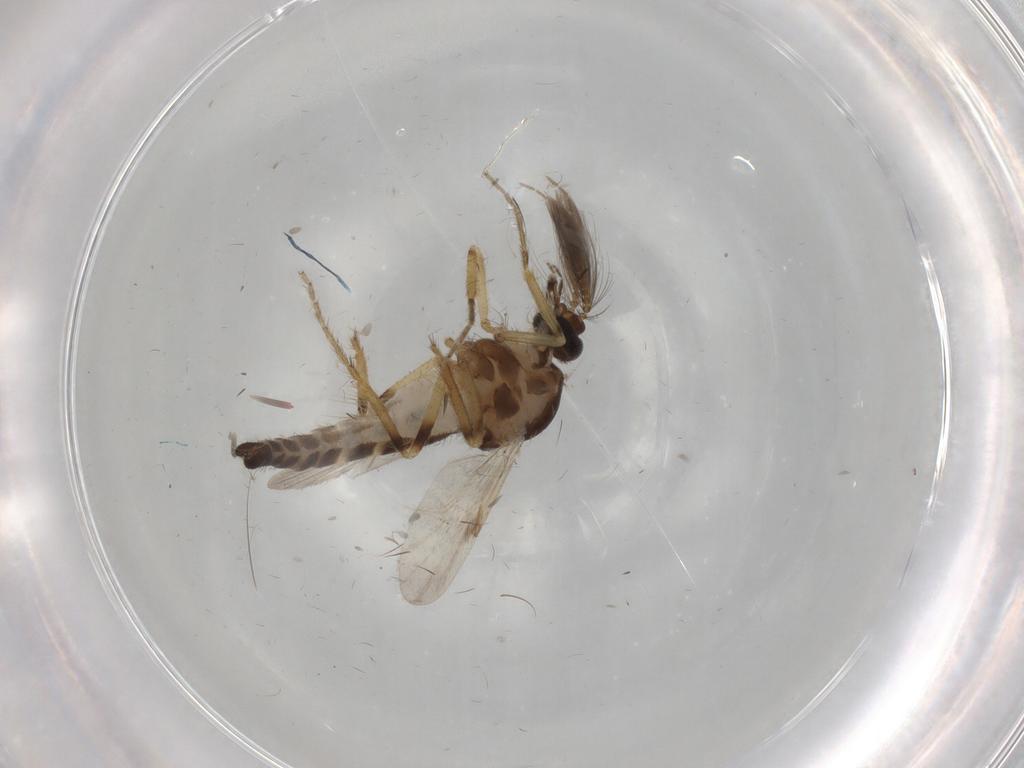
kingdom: Animalia
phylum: Arthropoda
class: Insecta
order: Diptera
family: Ceratopogonidae
